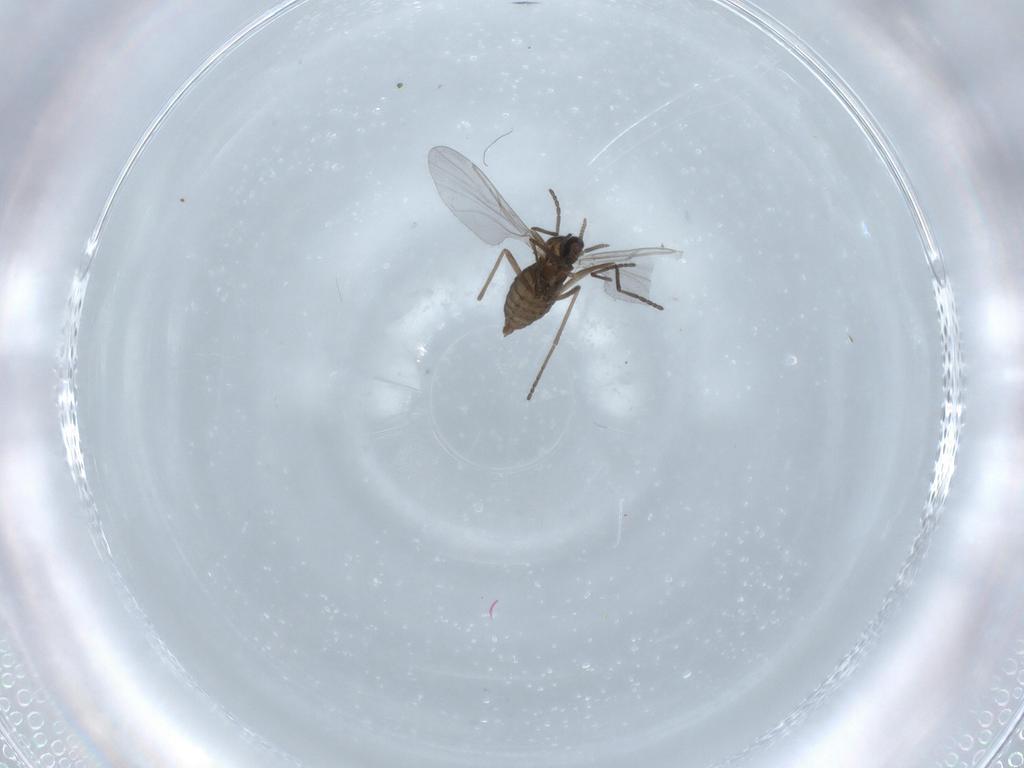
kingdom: Animalia
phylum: Arthropoda
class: Insecta
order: Diptera
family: Cecidomyiidae
